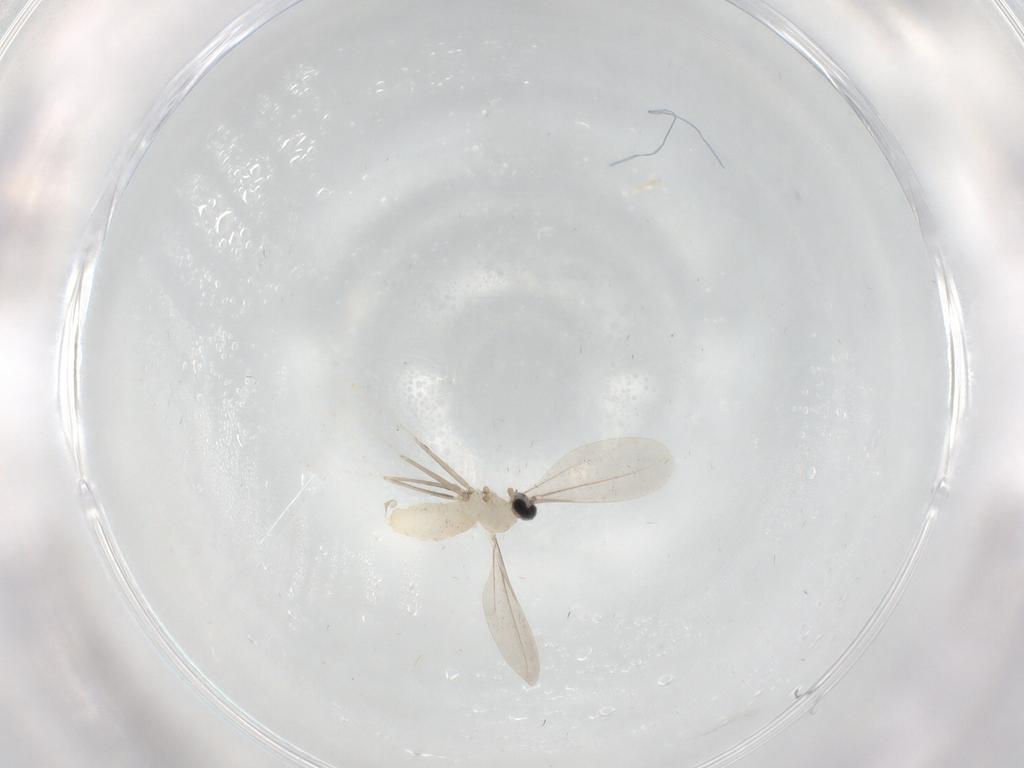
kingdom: Animalia
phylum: Arthropoda
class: Insecta
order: Diptera
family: Cecidomyiidae
